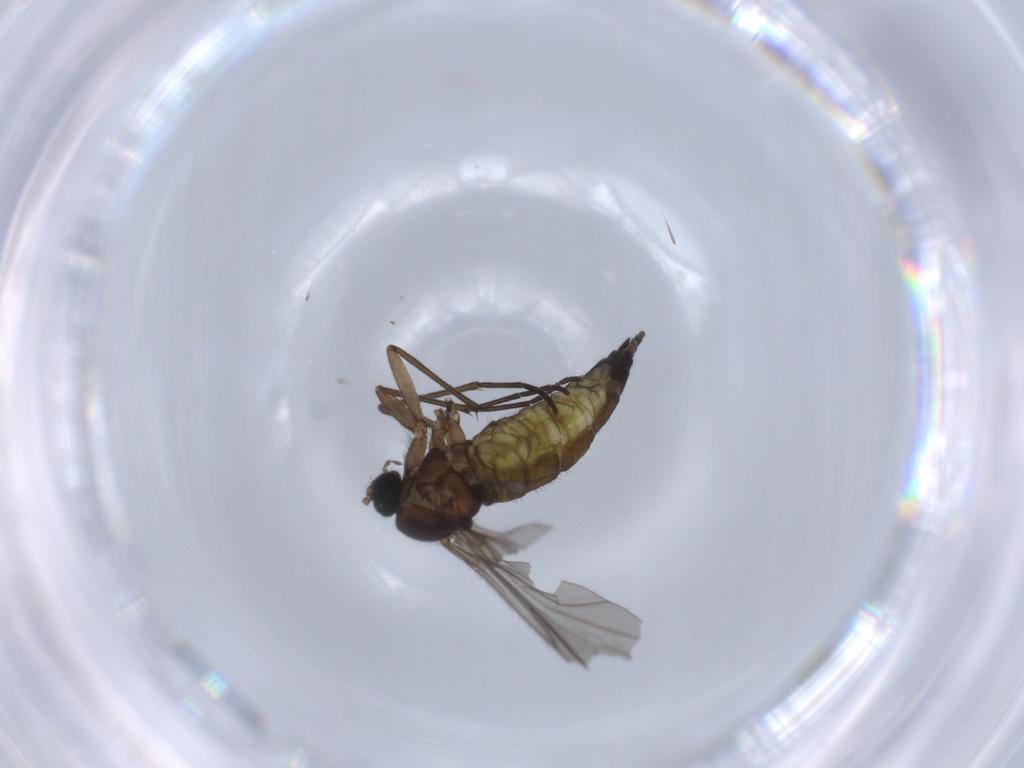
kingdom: Animalia
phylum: Arthropoda
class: Insecta
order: Diptera
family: Sciaridae
